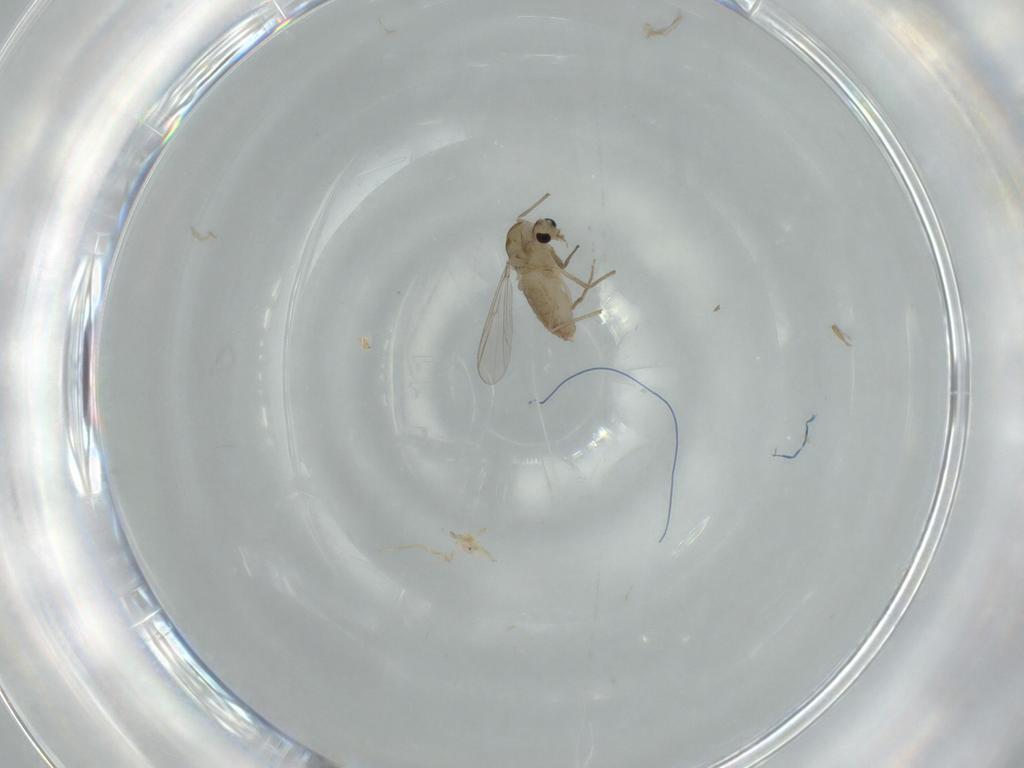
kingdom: Animalia
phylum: Arthropoda
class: Insecta
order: Diptera
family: Chironomidae
